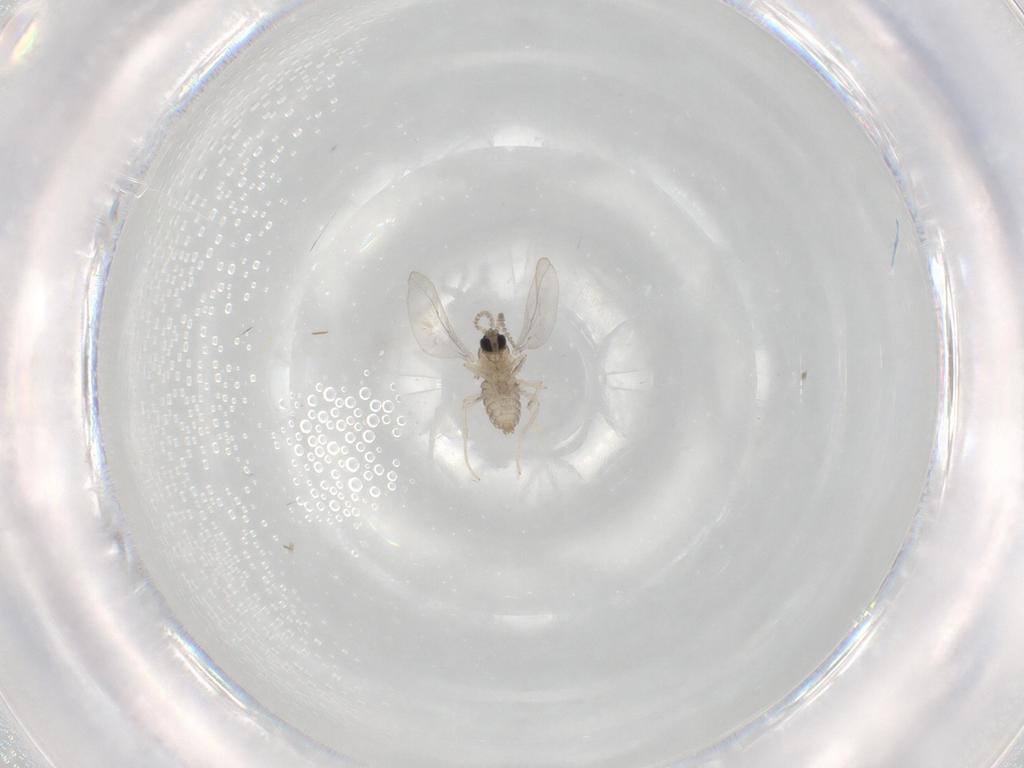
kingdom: Animalia
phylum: Arthropoda
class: Insecta
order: Diptera
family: Cecidomyiidae
